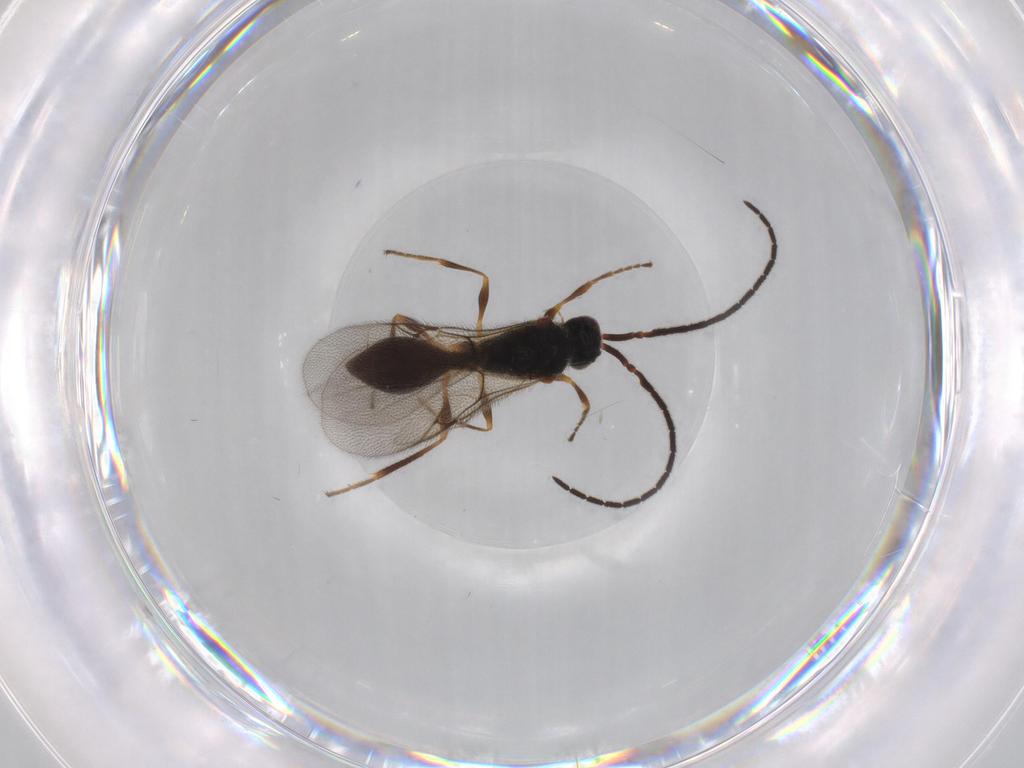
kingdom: Animalia
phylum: Arthropoda
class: Insecta
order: Hymenoptera
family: Diapriidae
